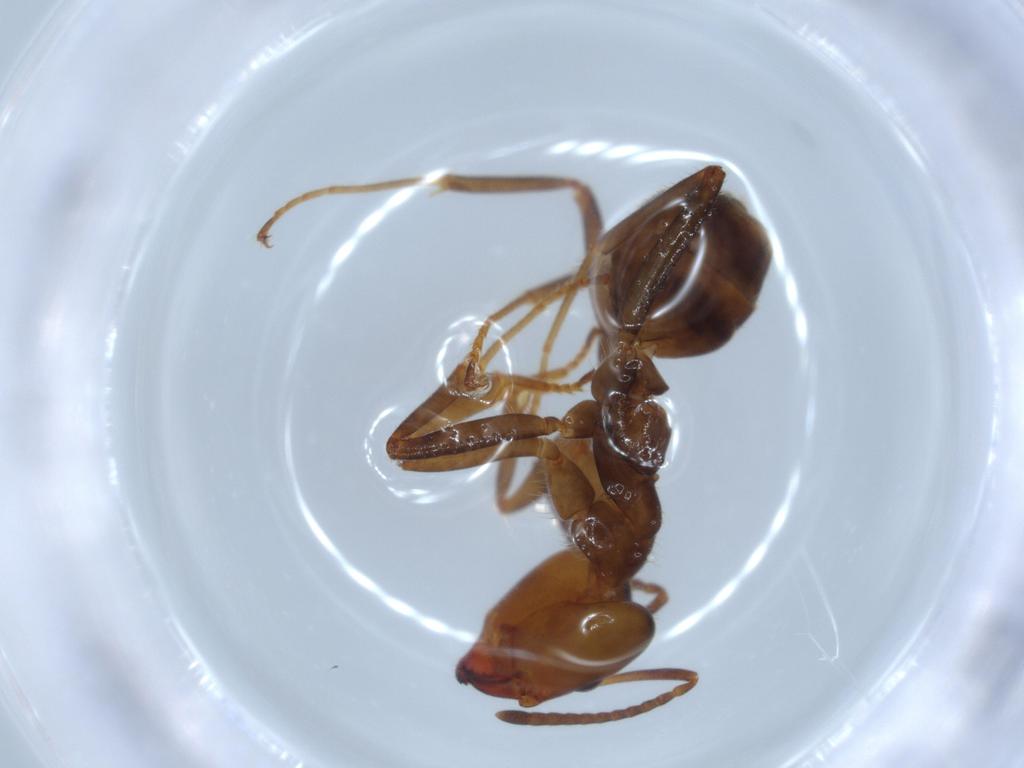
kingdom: Animalia
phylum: Arthropoda
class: Insecta
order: Hymenoptera
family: Formicidae
